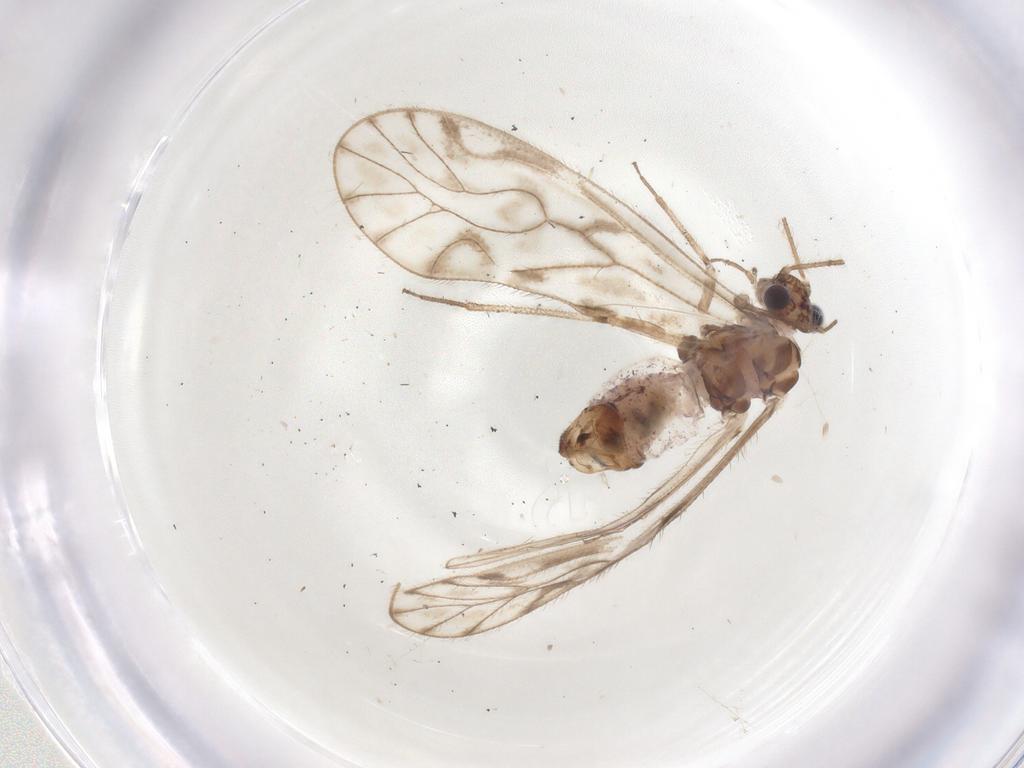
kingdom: Animalia
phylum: Arthropoda
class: Insecta
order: Psocodea
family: Elipsocidae
